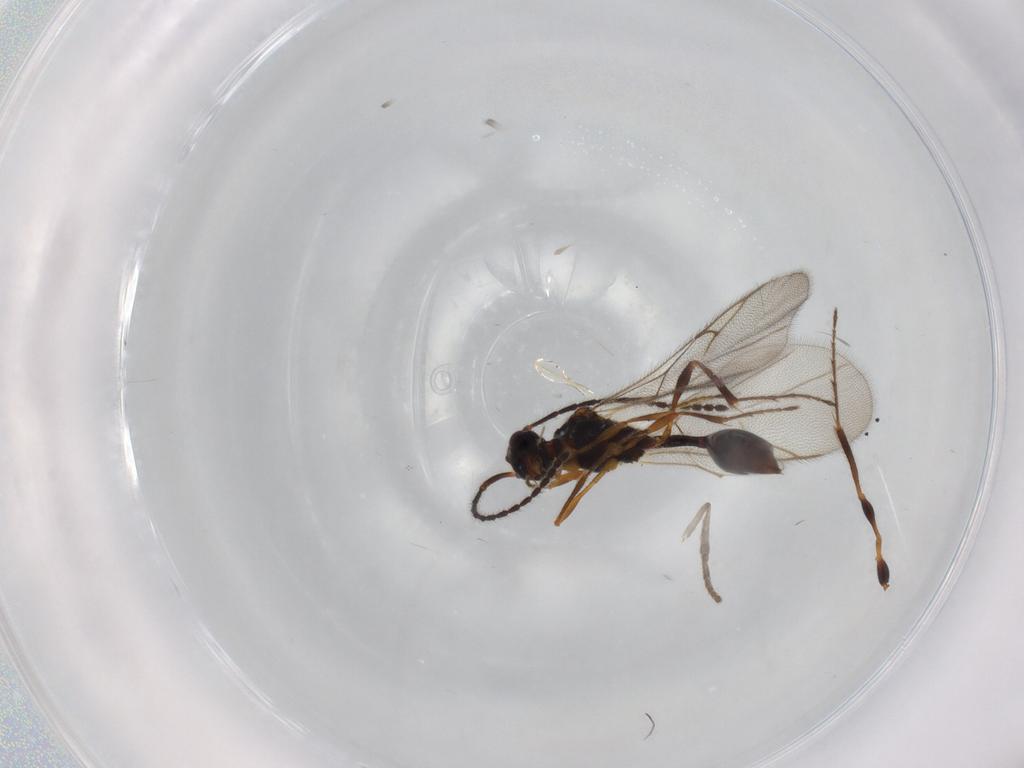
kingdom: Animalia
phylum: Arthropoda
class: Insecta
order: Hymenoptera
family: Diapriidae
